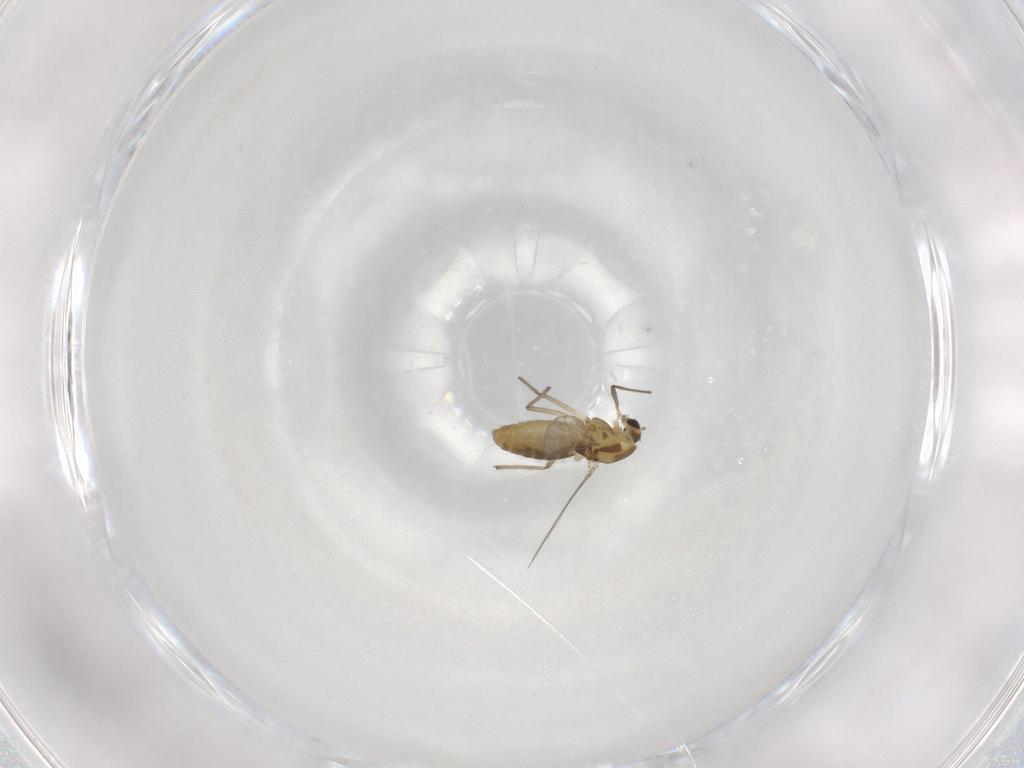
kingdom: Animalia
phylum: Arthropoda
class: Insecta
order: Diptera
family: Chironomidae
